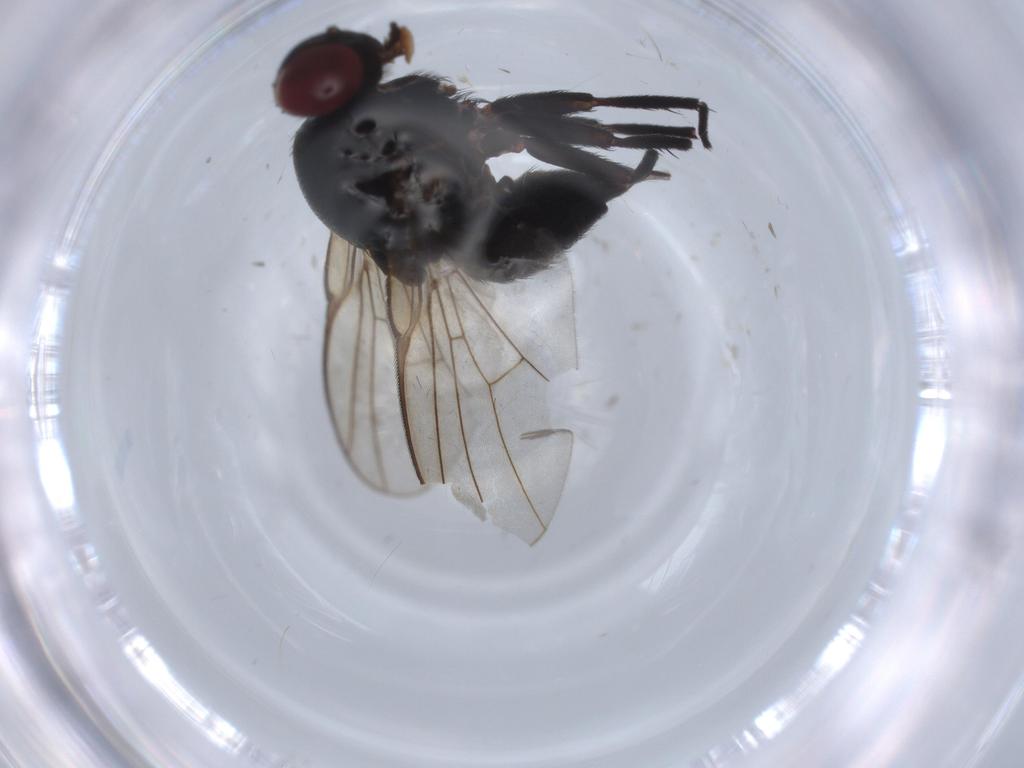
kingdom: Animalia
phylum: Arthropoda
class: Insecta
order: Diptera
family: Agromyzidae
